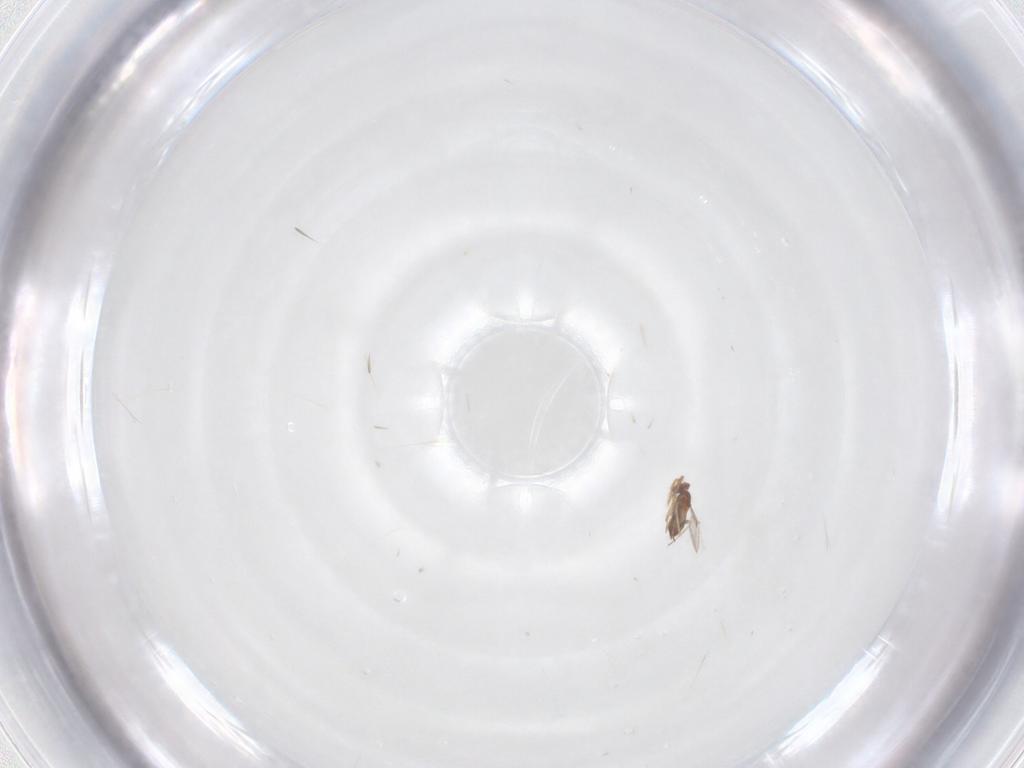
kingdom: Animalia
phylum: Arthropoda
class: Insecta
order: Hymenoptera
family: Trichogrammatidae
